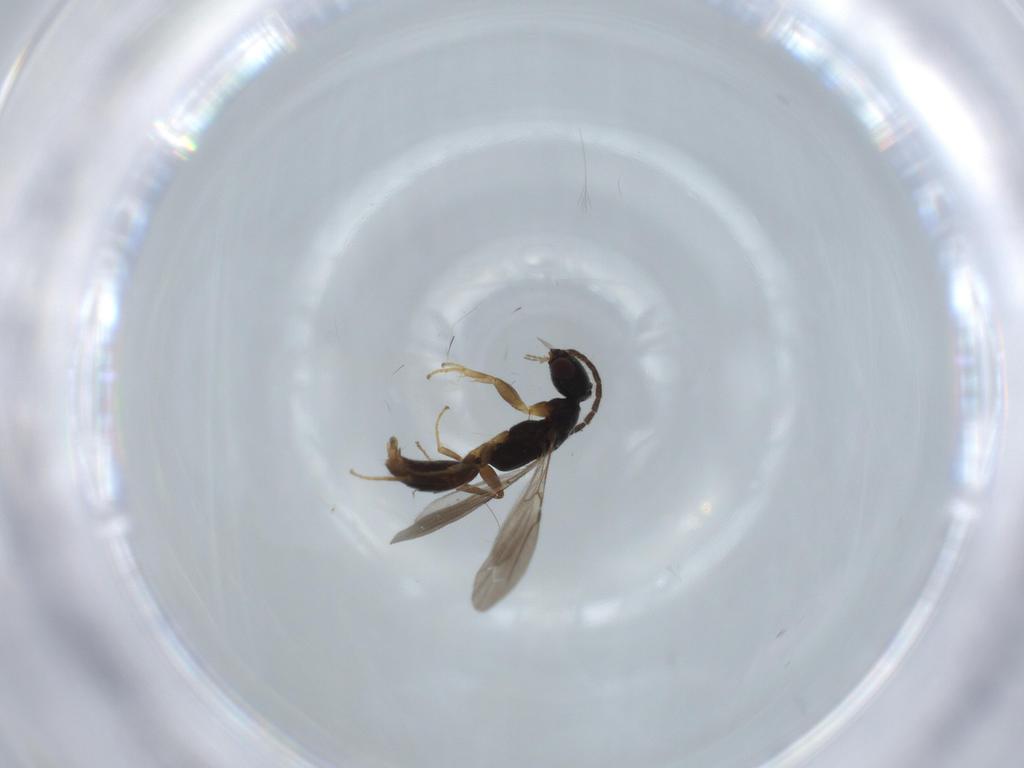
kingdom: Animalia
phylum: Arthropoda
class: Insecta
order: Hymenoptera
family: Bethylidae
